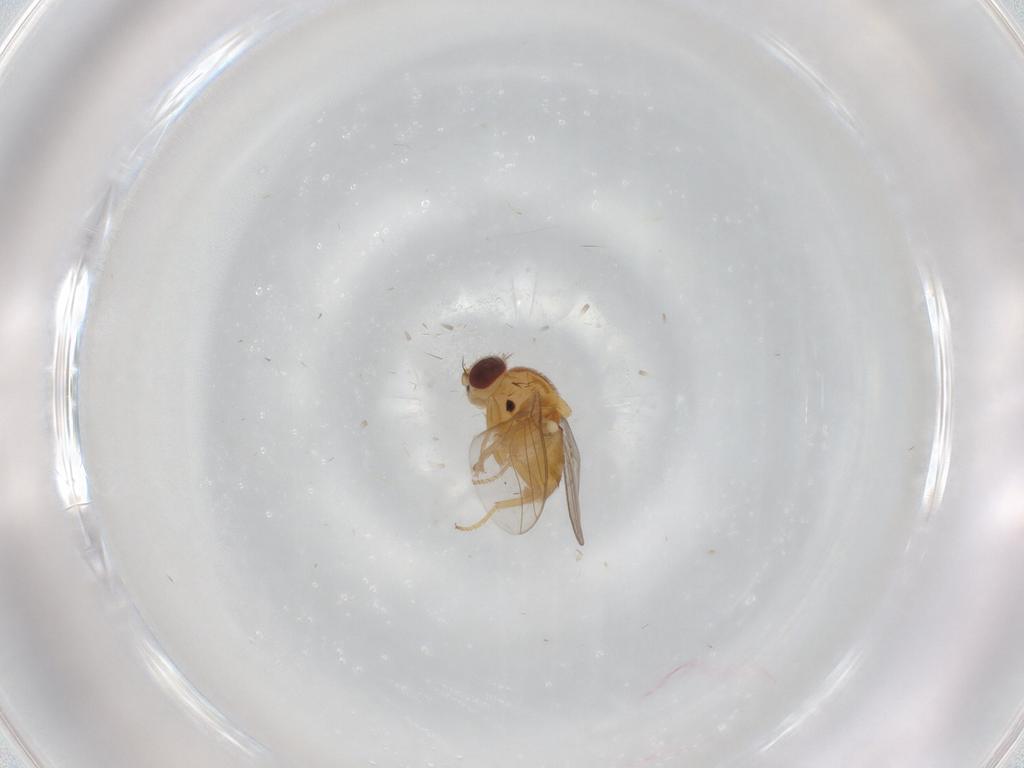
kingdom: Animalia
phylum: Arthropoda
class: Insecta
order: Diptera
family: Chloropidae
